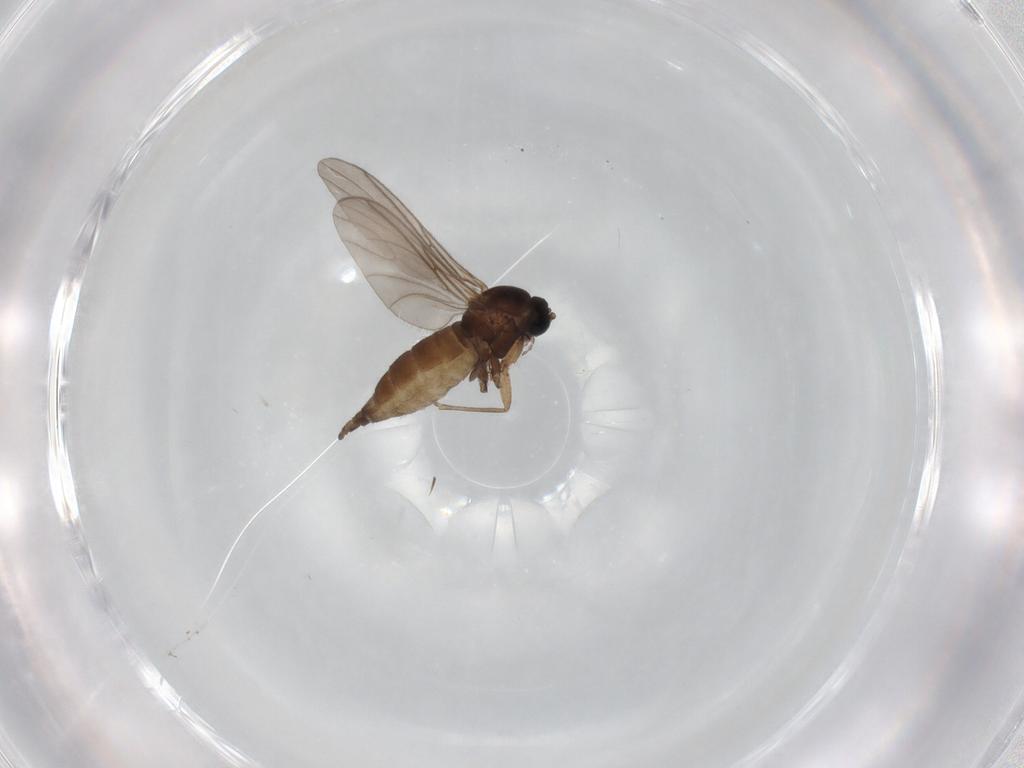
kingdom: Animalia
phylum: Arthropoda
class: Insecta
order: Diptera
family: Sciaridae
